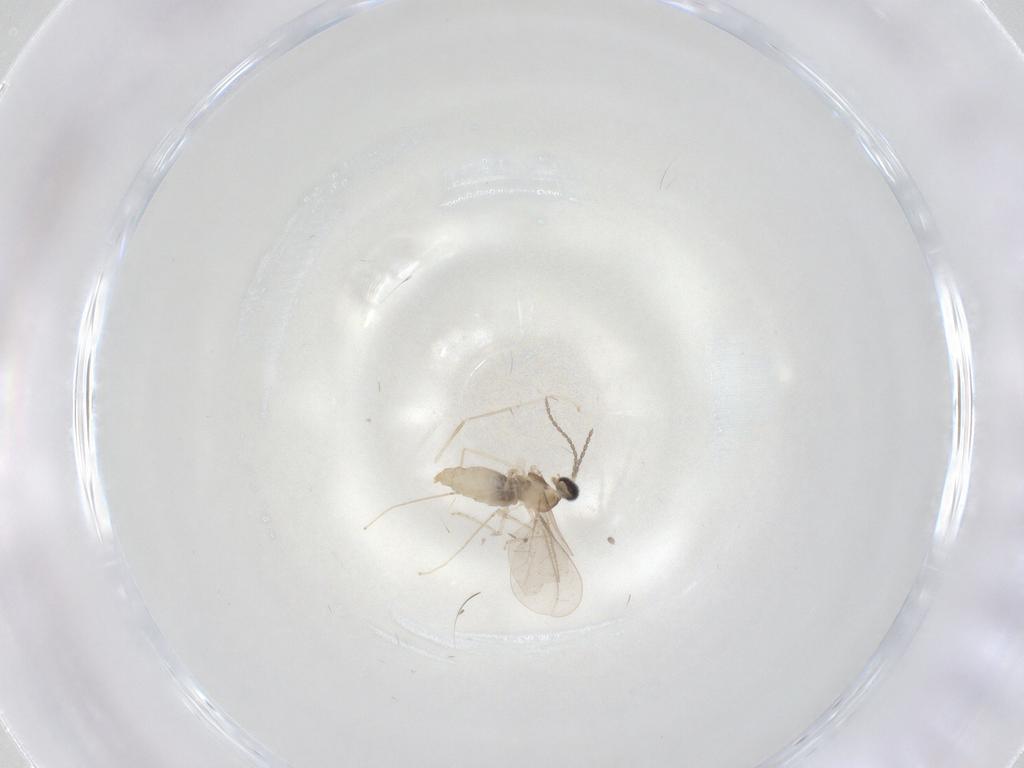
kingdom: Animalia
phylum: Arthropoda
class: Insecta
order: Diptera
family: Cecidomyiidae
